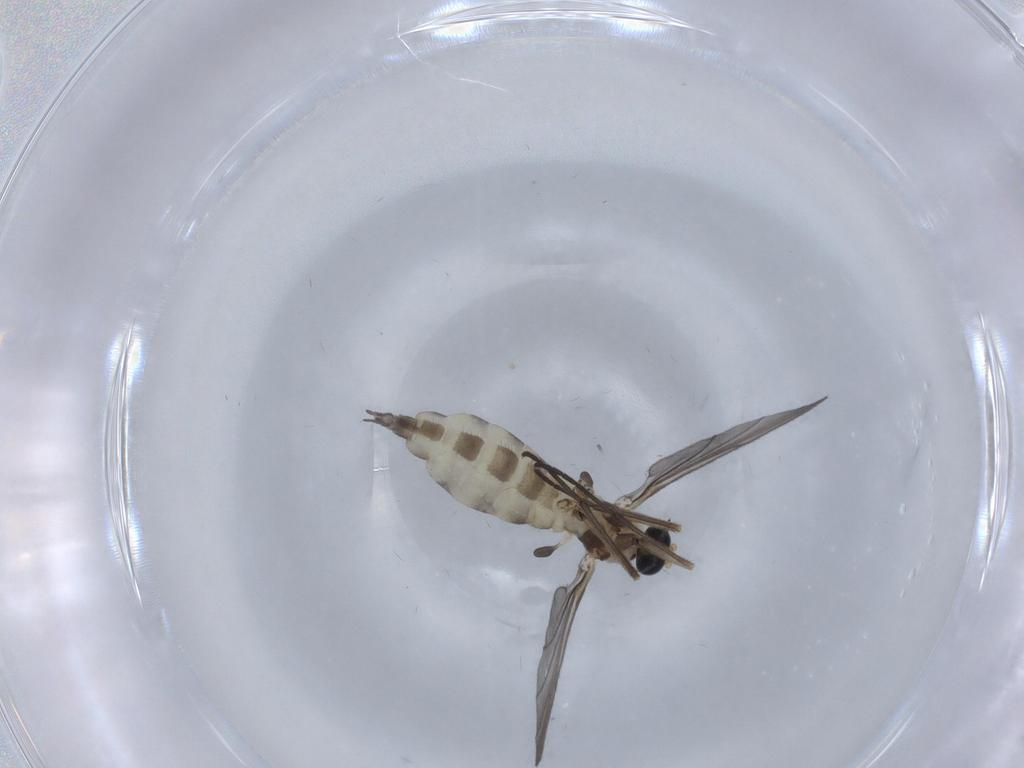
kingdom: Animalia
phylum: Arthropoda
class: Insecta
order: Diptera
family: Sciaridae
